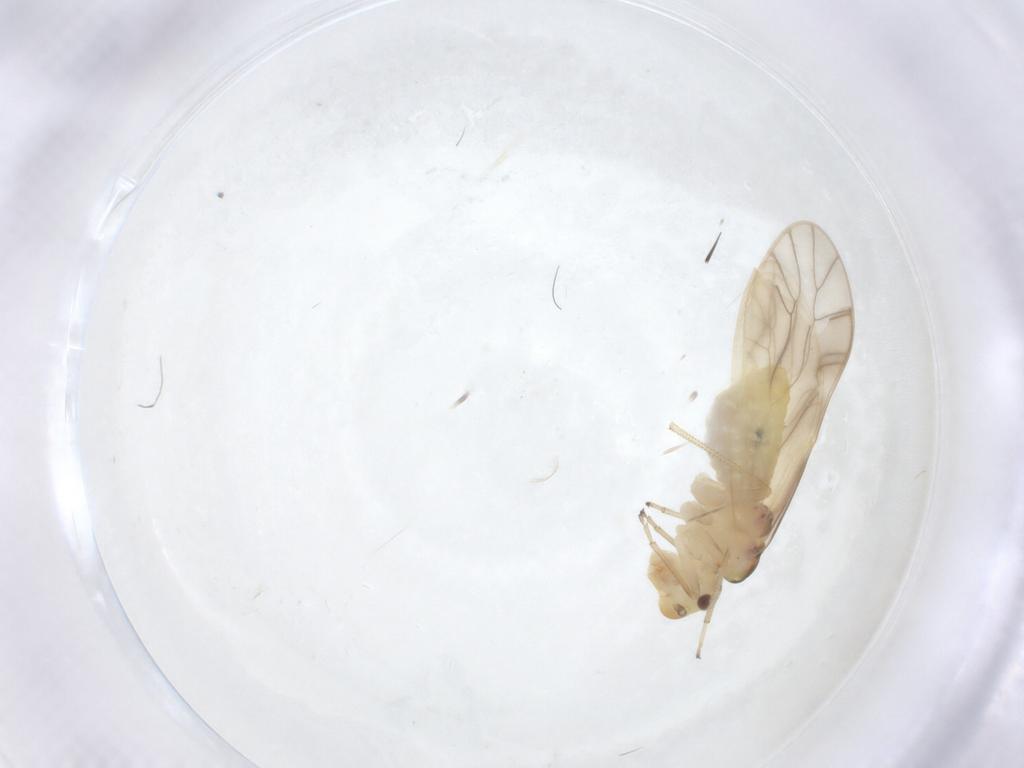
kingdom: Animalia
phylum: Arthropoda
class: Insecta
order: Psocodea
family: Caeciliusidae
